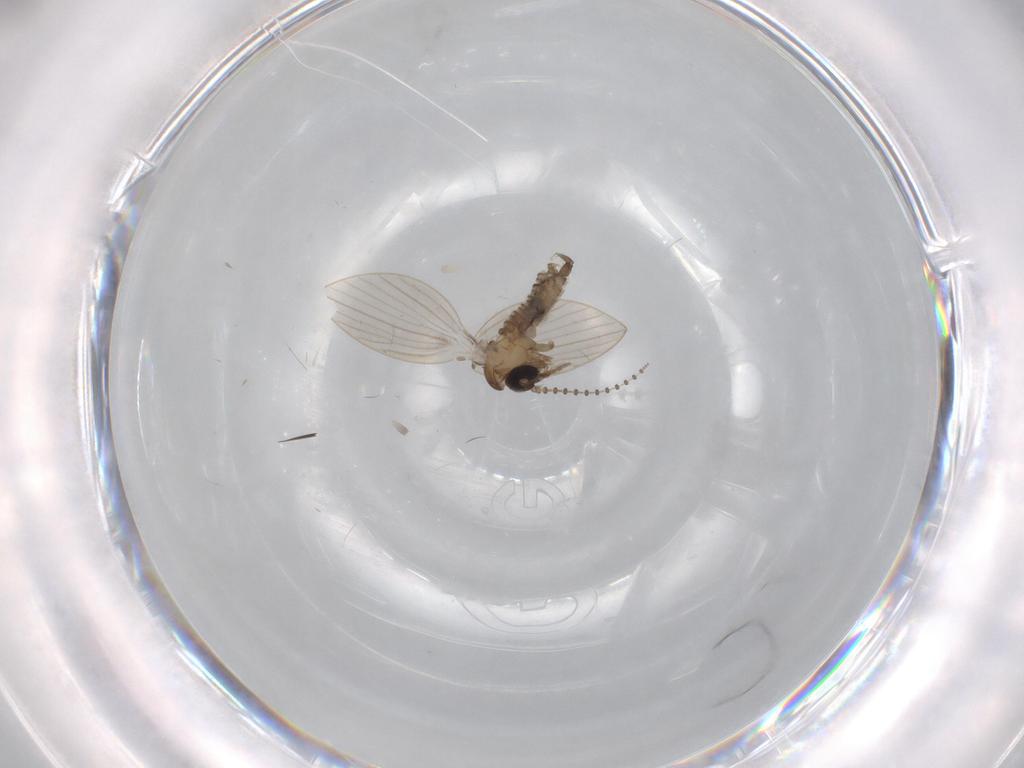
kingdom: Animalia
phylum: Arthropoda
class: Insecta
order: Diptera
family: Psychodidae
